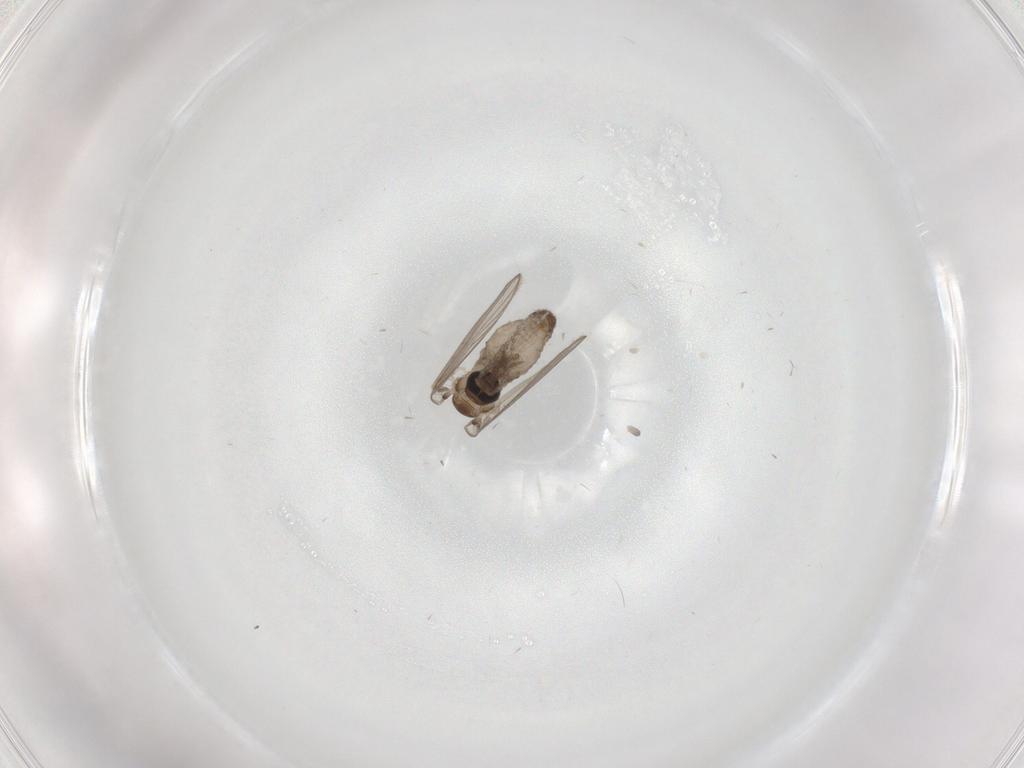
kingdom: Animalia
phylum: Arthropoda
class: Insecta
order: Diptera
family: Psychodidae
